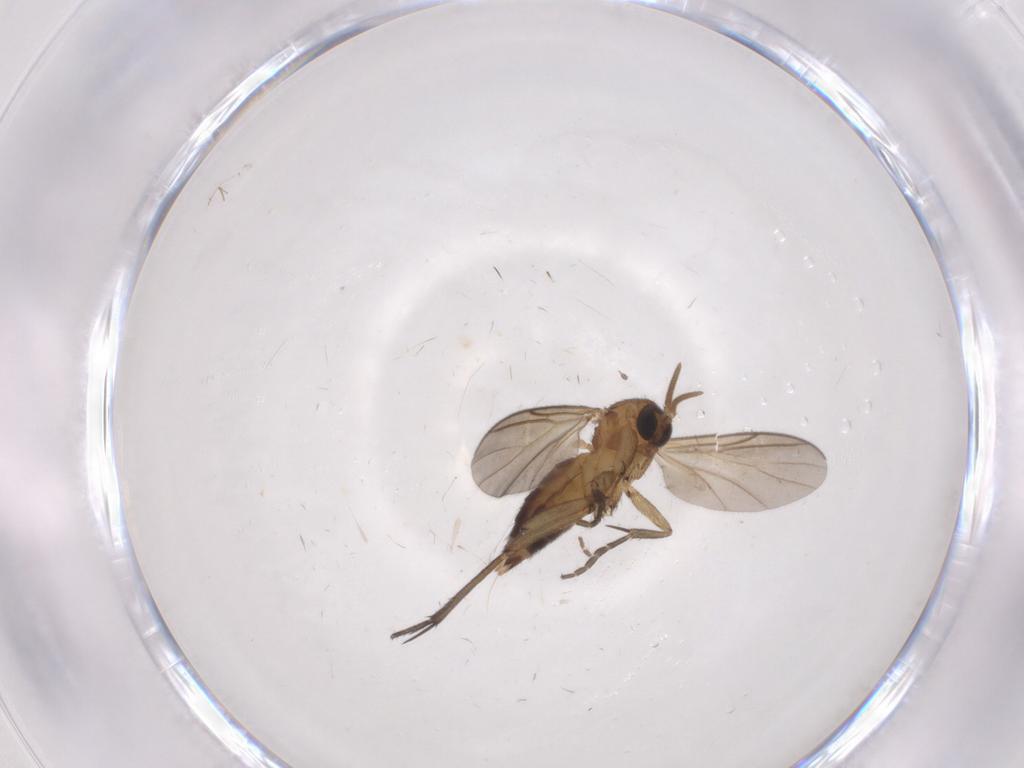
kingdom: Animalia
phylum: Arthropoda
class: Insecta
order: Diptera
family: Chironomidae
